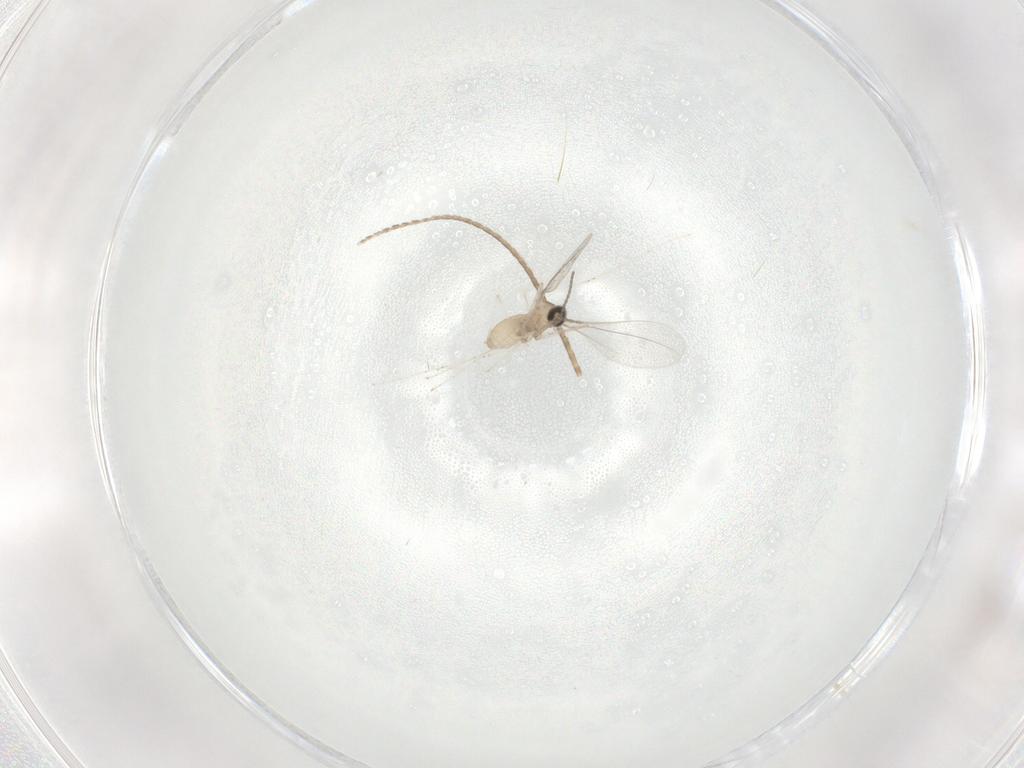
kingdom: Animalia
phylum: Arthropoda
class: Insecta
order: Diptera
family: Cecidomyiidae
